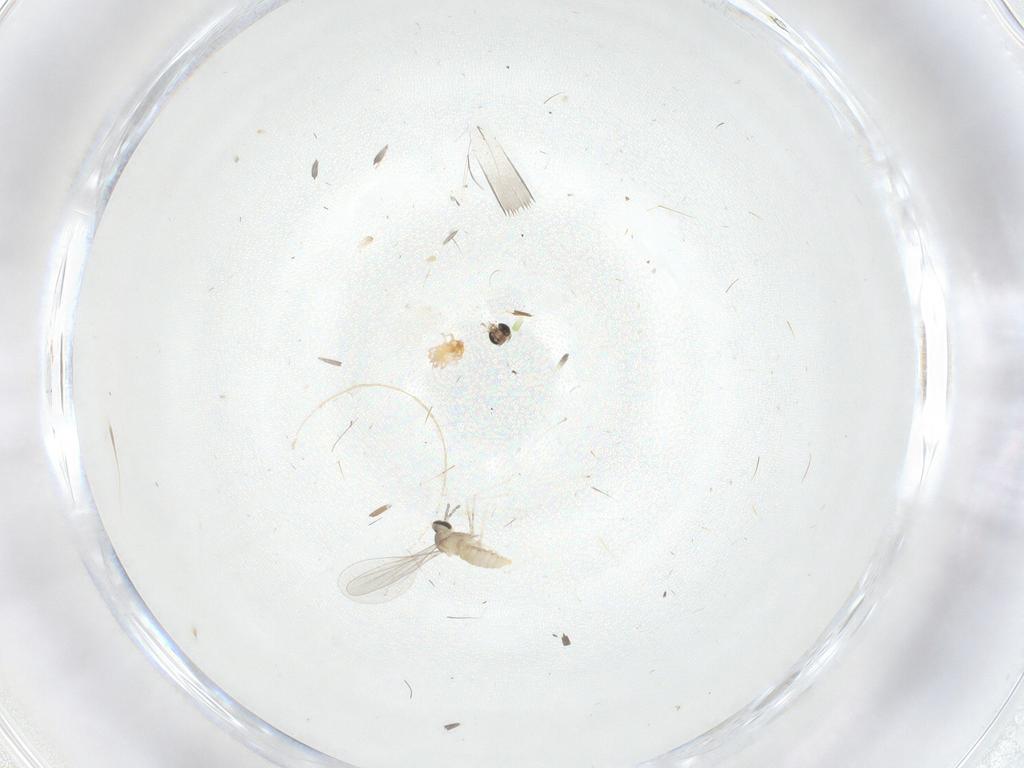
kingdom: Animalia
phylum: Arthropoda
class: Insecta
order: Diptera
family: Cecidomyiidae
